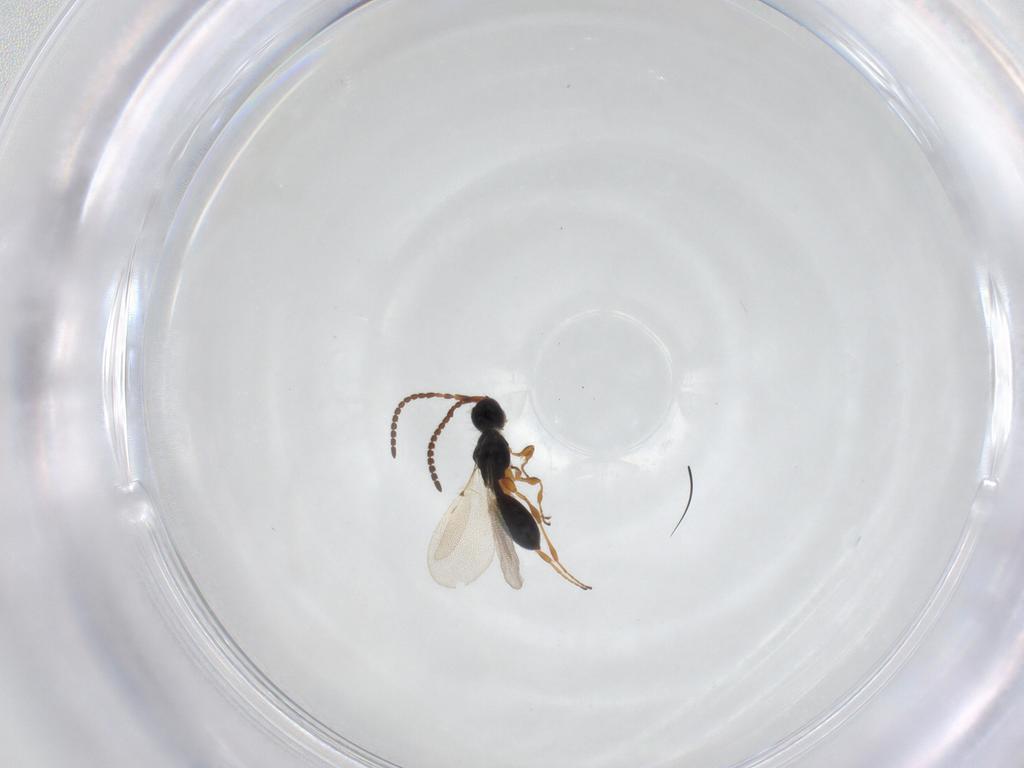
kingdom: Animalia
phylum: Arthropoda
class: Insecta
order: Hymenoptera
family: Diapriidae
